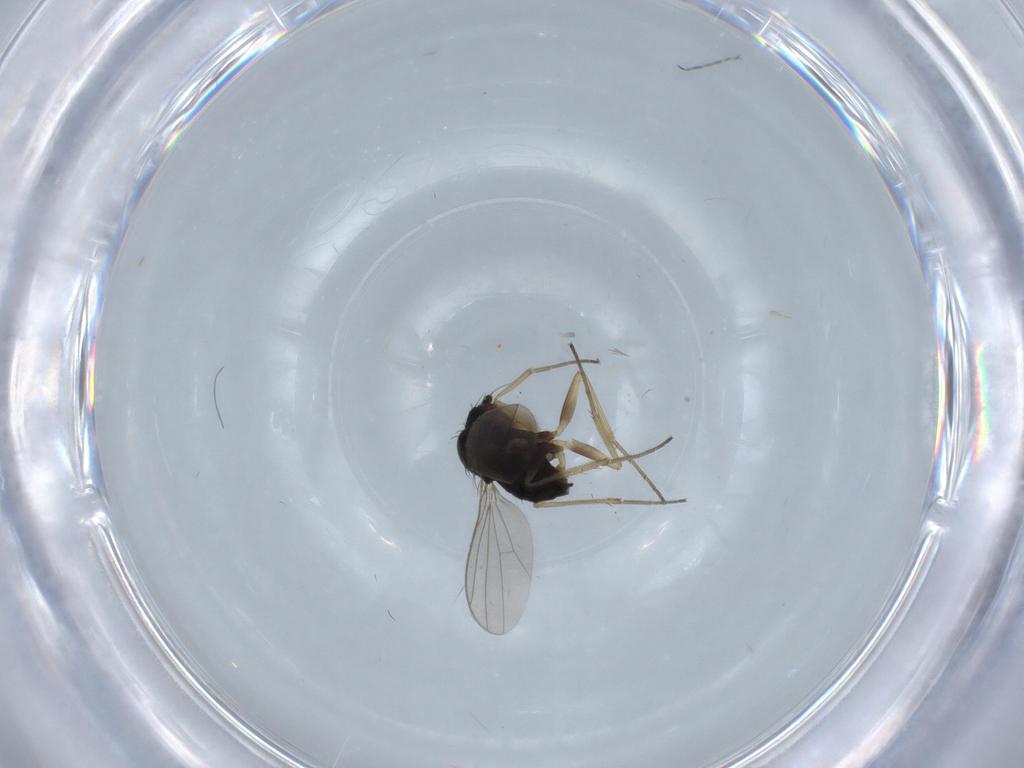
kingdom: Animalia
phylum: Arthropoda
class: Insecta
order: Diptera
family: Dolichopodidae
